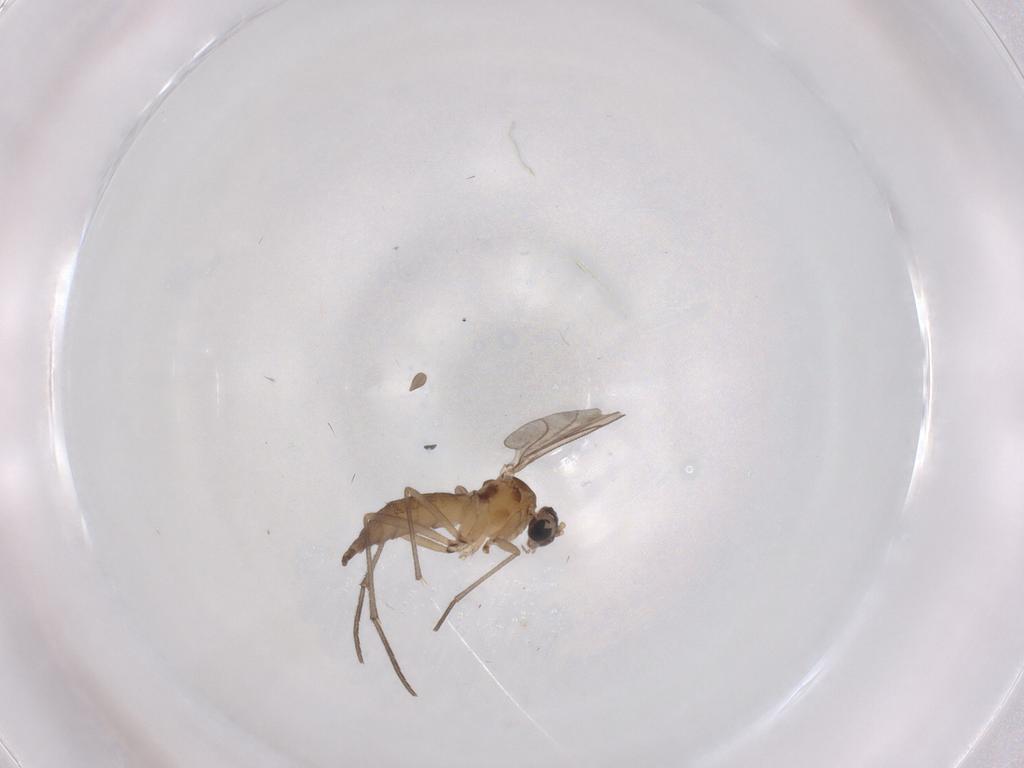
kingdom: Animalia
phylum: Arthropoda
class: Insecta
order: Diptera
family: Sciaridae
